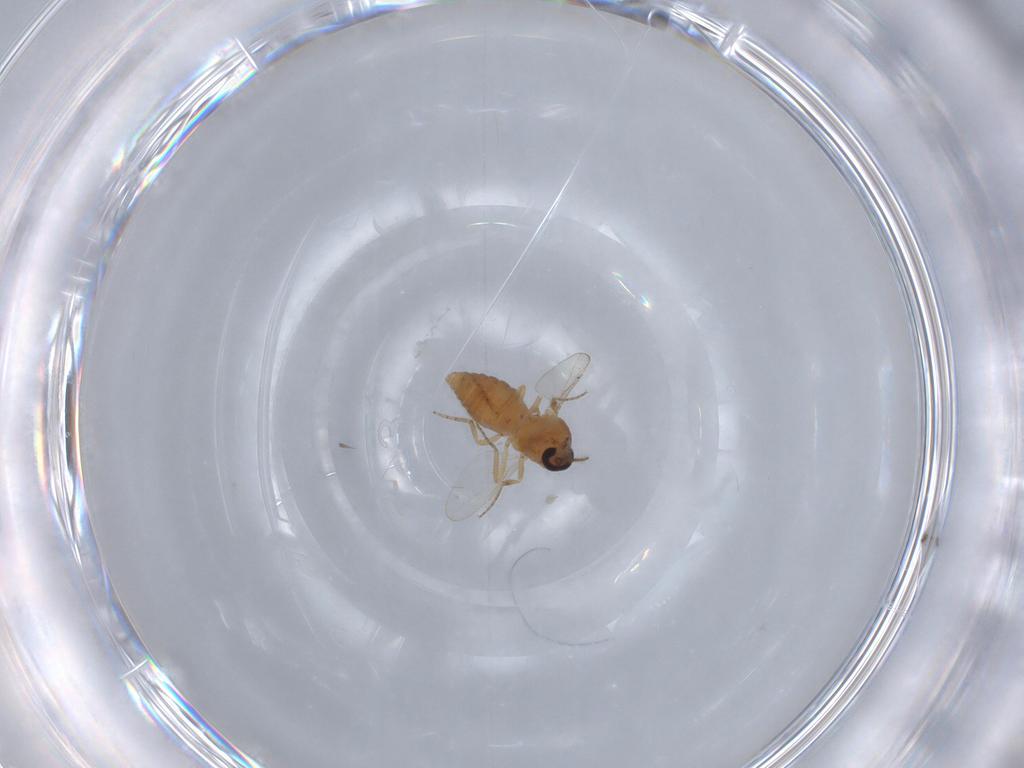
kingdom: Animalia
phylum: Arthropoda
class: Insecta
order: Diptera
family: Ceratopogonidae
